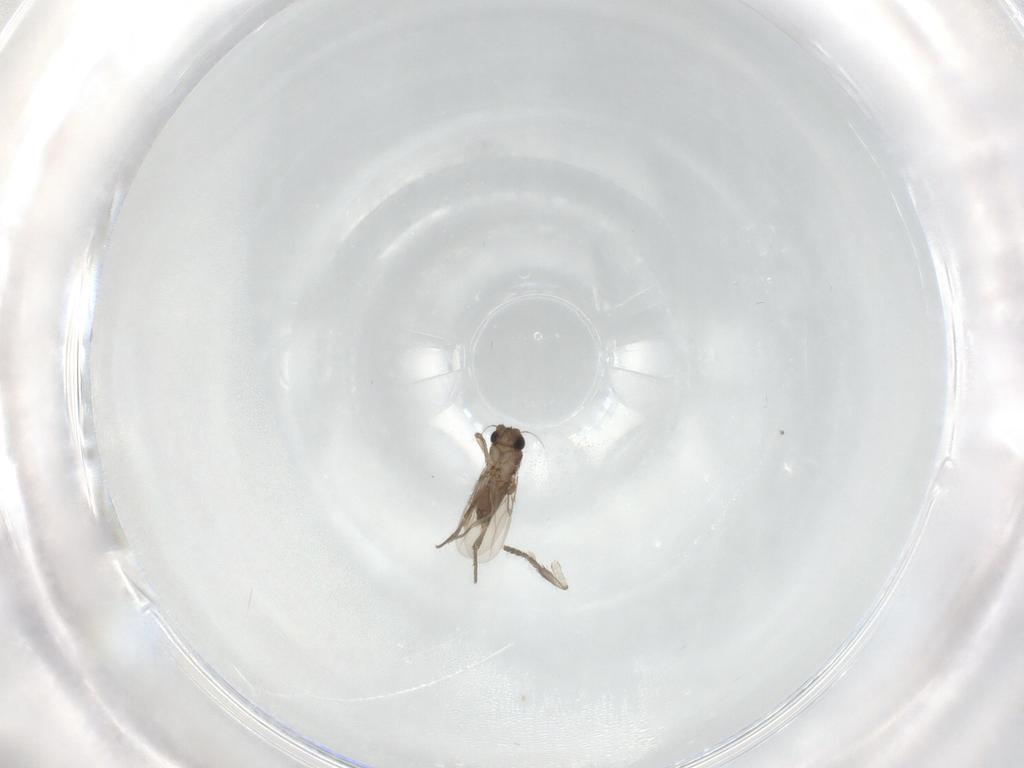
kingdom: Animalia
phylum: Arthropoda
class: Insecta
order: Diptera
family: Phoridae
